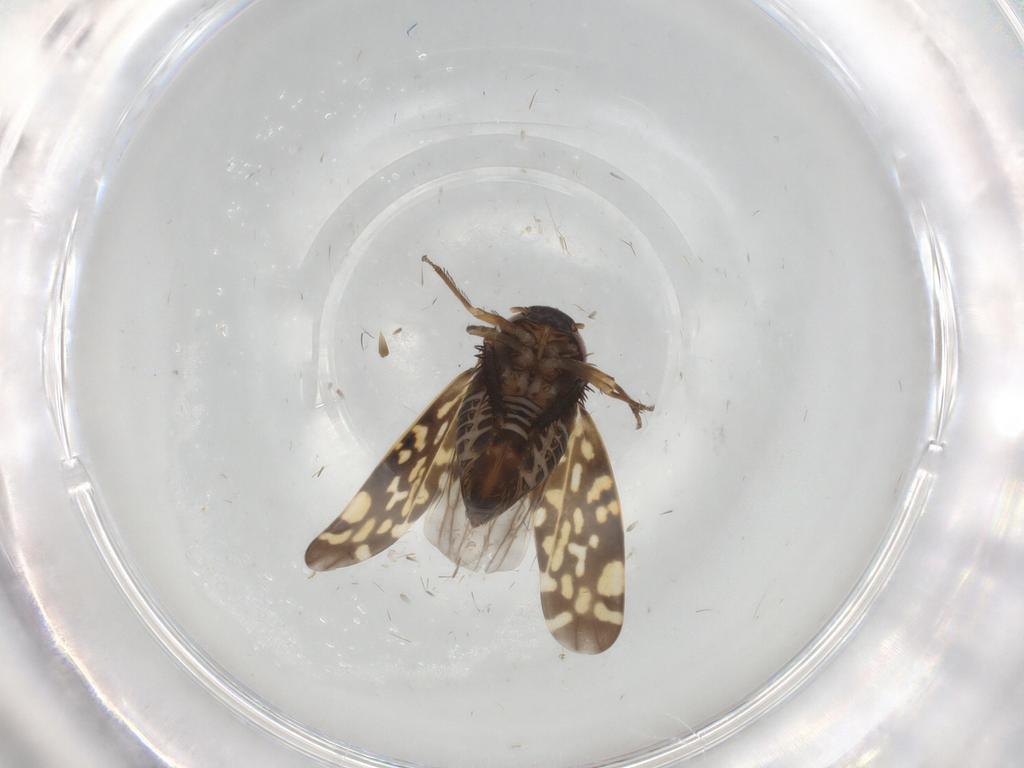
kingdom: Animalia
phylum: Arthropoda
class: Insecta
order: Hemiptera
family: Cicadellidae
